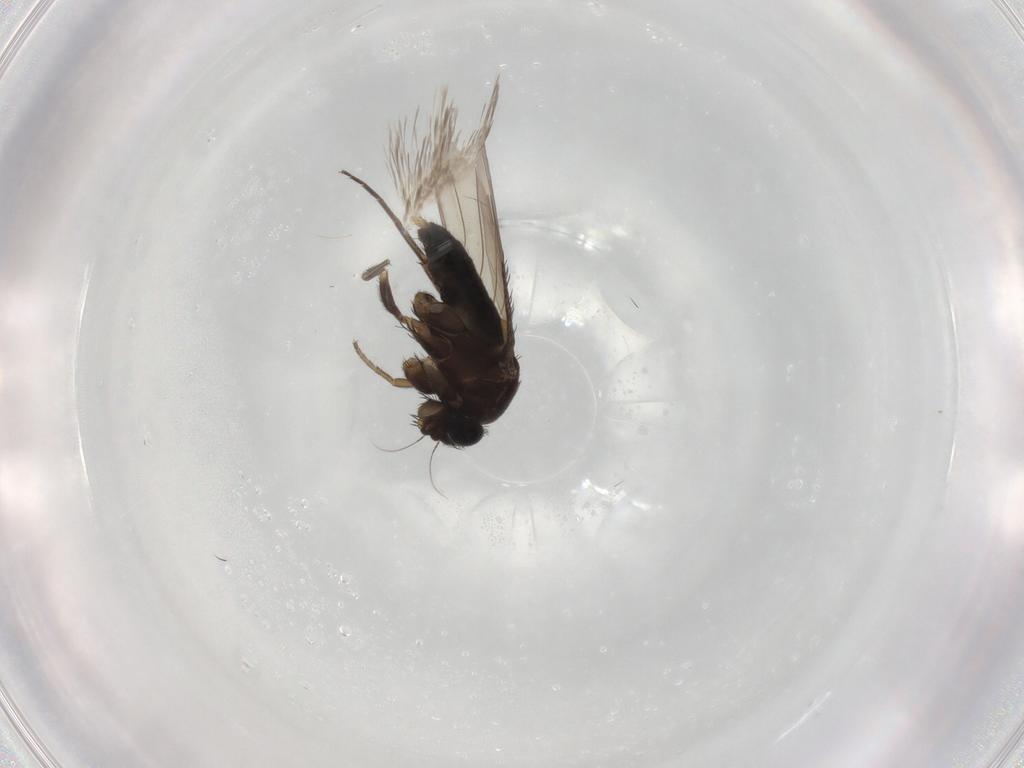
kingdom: Animalia
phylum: Arthropoda
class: Insecta
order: Diptera
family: Phoridae
